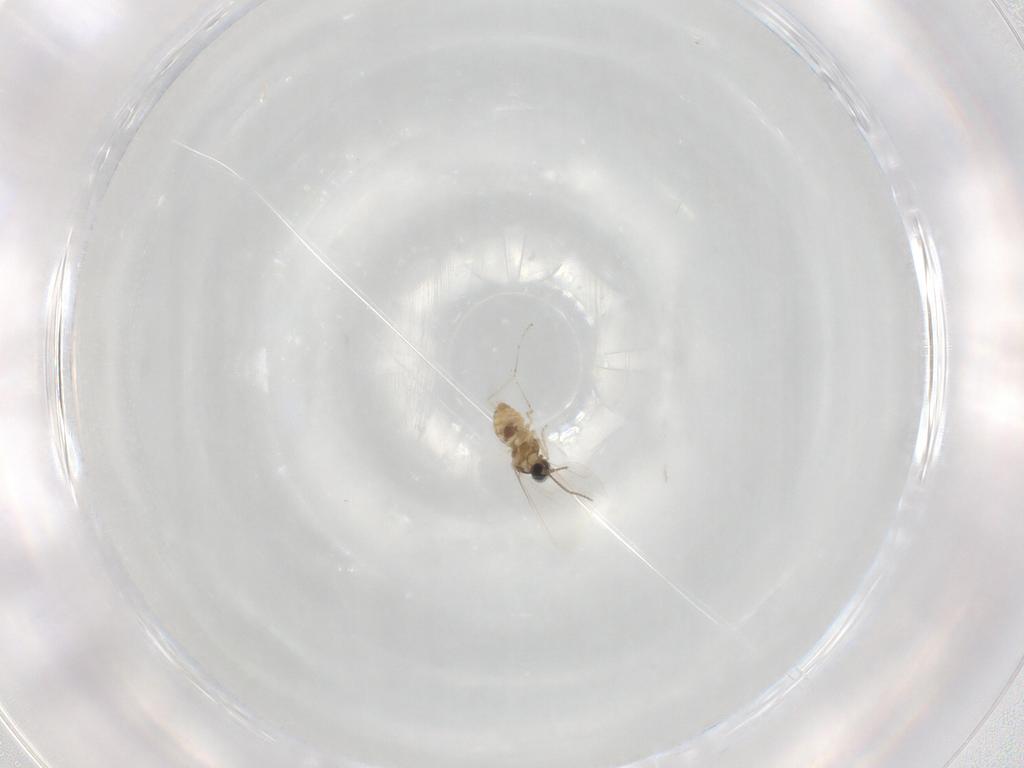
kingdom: Animalia
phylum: Arthropoda
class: Insecta
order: Diptera
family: Cecidomyiidae
